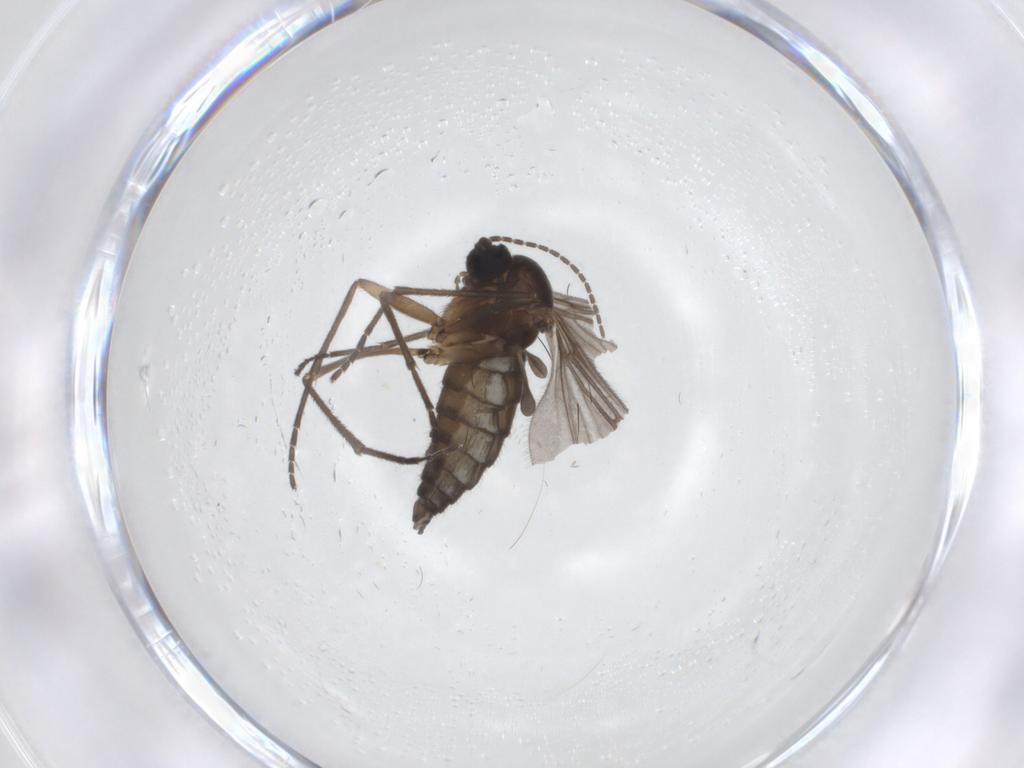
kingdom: Animalia
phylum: Arthropoda
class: Insecta
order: Diptera
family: Sciaridae
